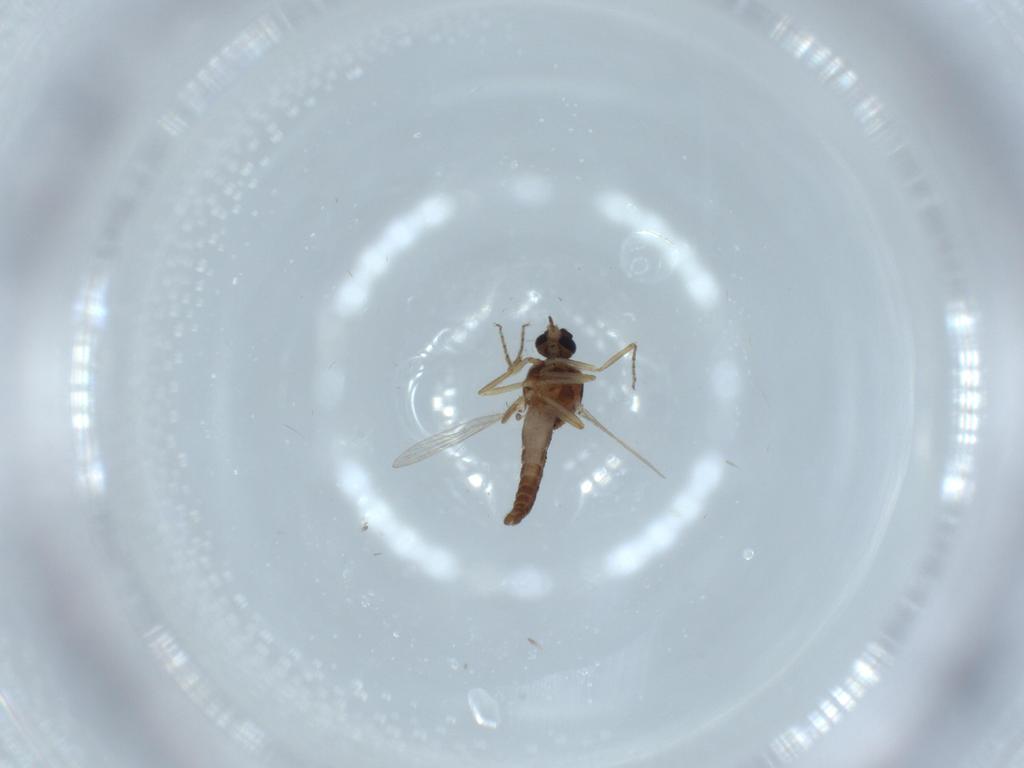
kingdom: Animalia
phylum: Arthropoda
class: Insecta
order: Diptera
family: Ceratopogonidae
